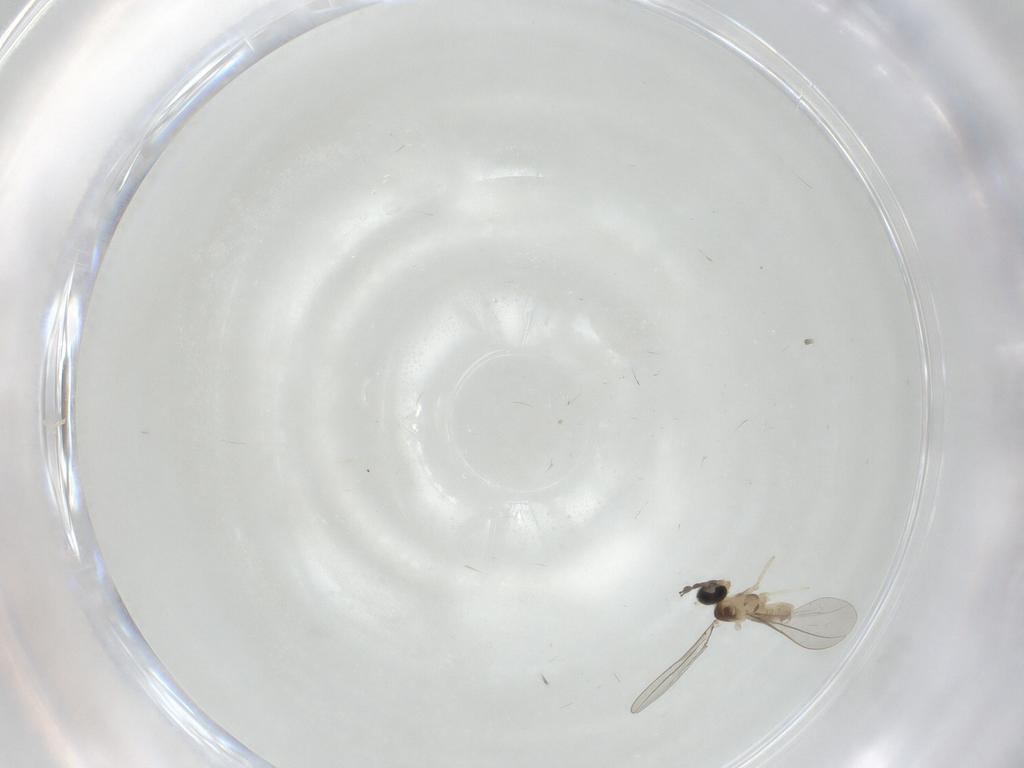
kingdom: Animalia
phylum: Arthropoda
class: Insecta
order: Diptera
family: Cecidomyiidae
